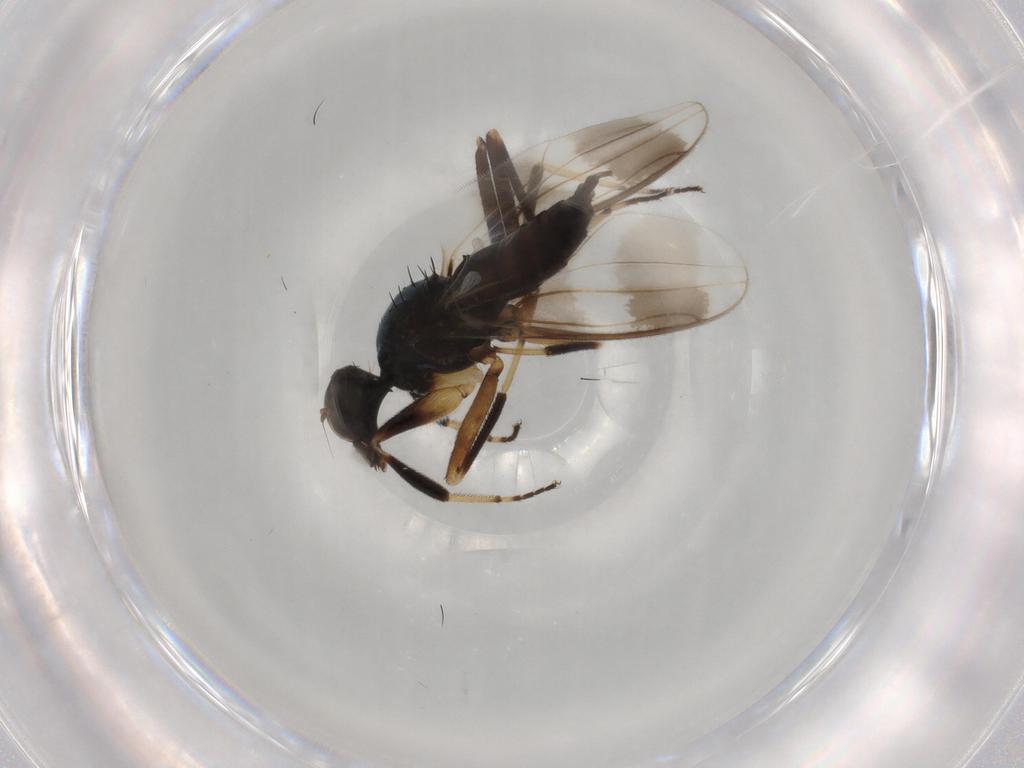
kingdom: Animalia
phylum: Arthropoda
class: Insecta
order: Diptera
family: Hybotidae
